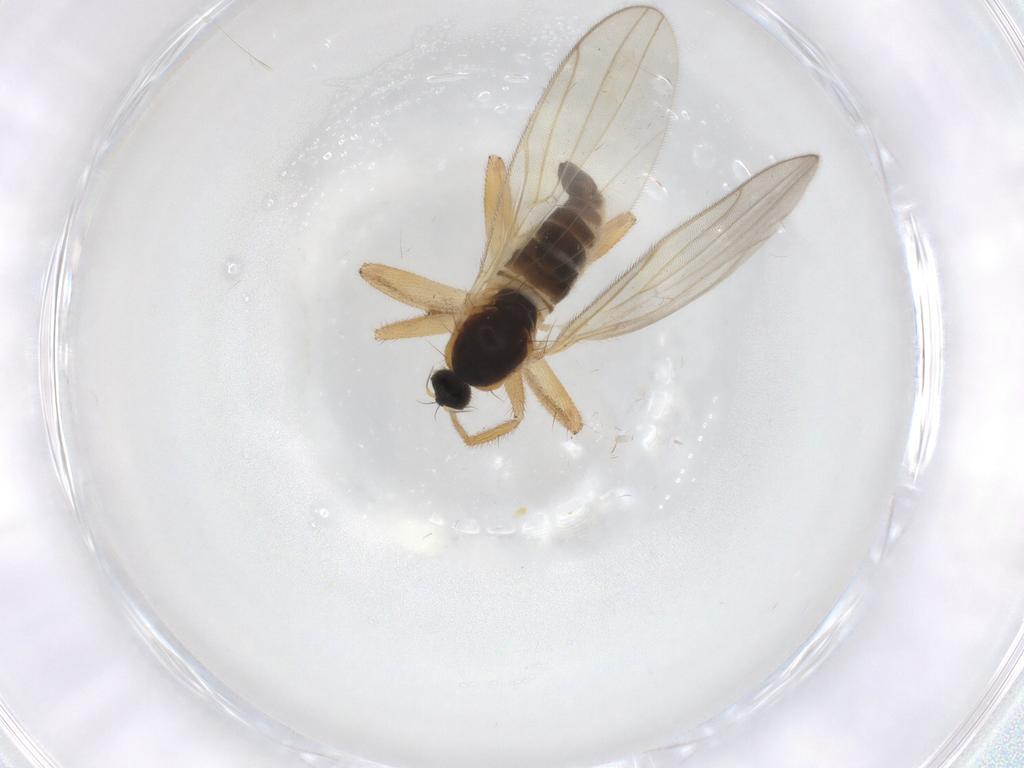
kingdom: Animalia
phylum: Arthropoda
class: Insecta
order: Diptera
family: Hybotidae
